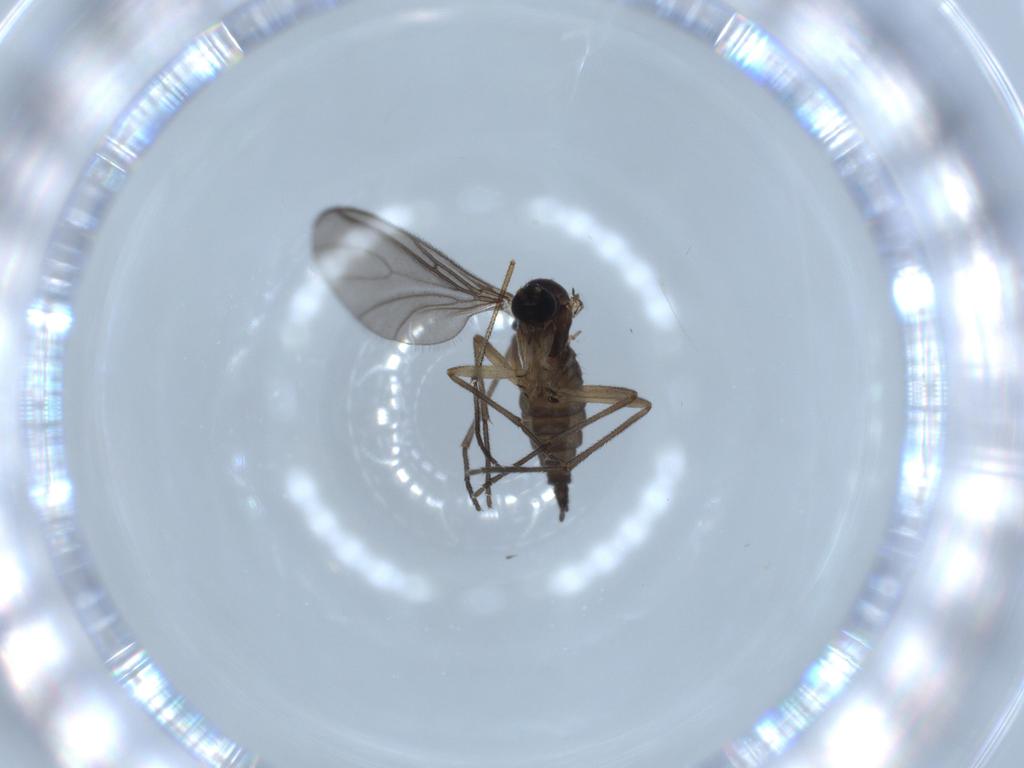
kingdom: Animalia
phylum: Arthropoda
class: Insecta
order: Diptera
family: Sciaridae
